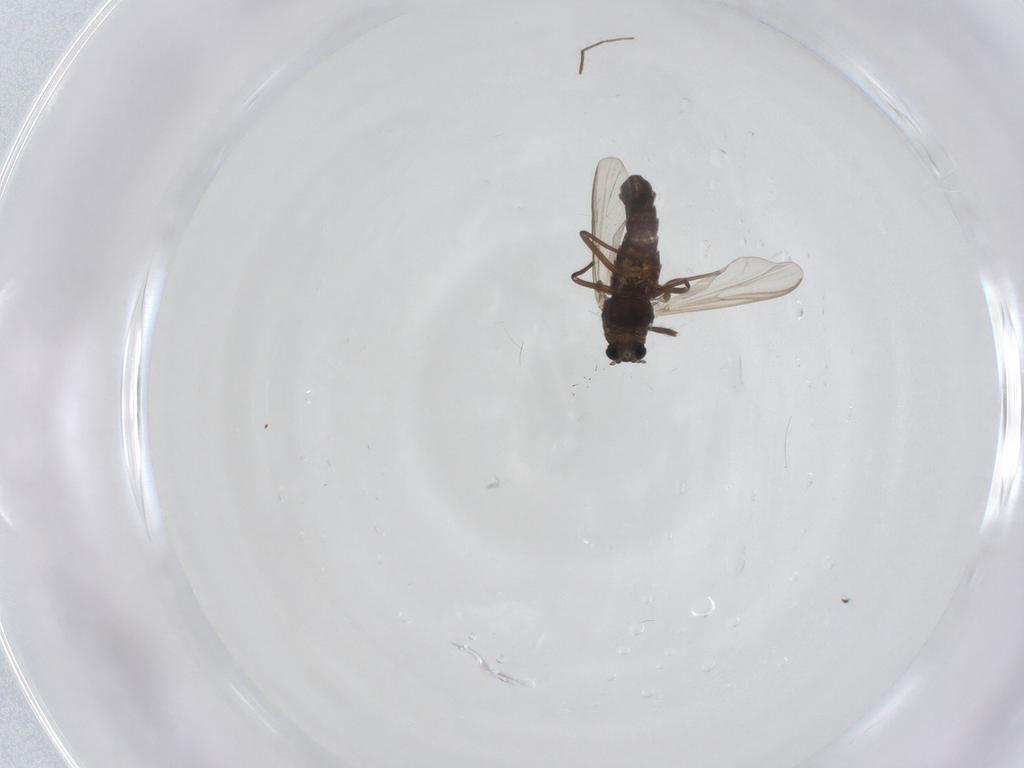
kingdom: Animalia
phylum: Arthropoda
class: Insecta
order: Diptera
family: Chironomidae
